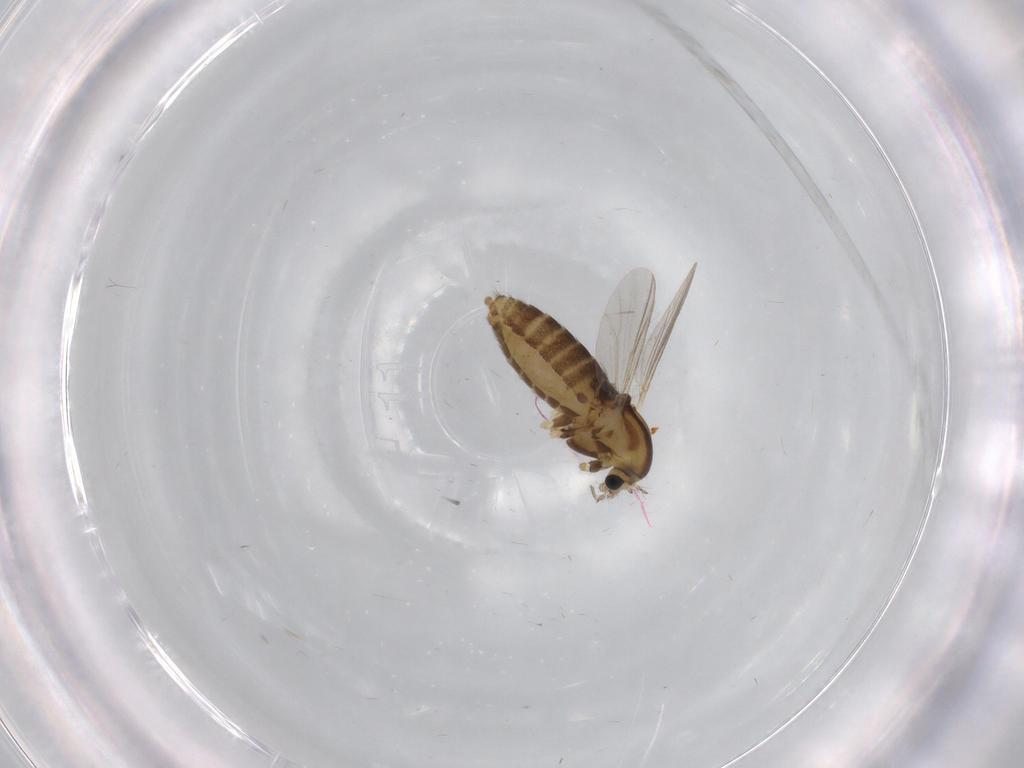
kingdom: Animalia
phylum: Arthropoda
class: Insecta
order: Diptera
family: Chironomidae
